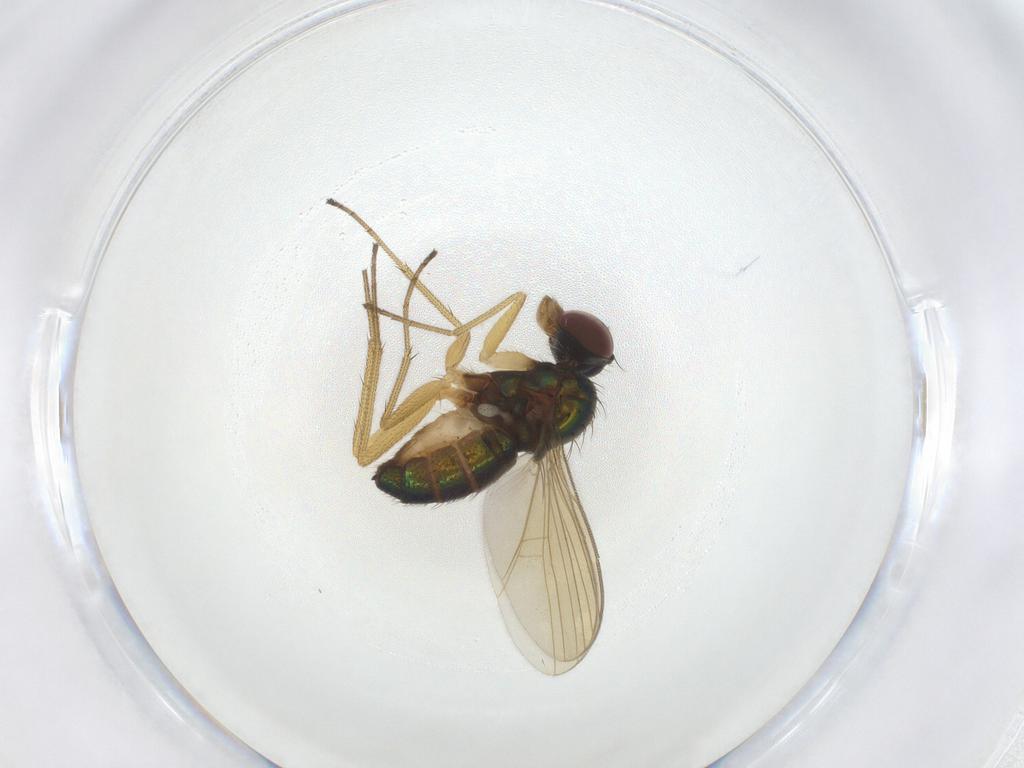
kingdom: Animalia
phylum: Arthropoda
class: Insecta
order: Diptera
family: Dolichopodidae
